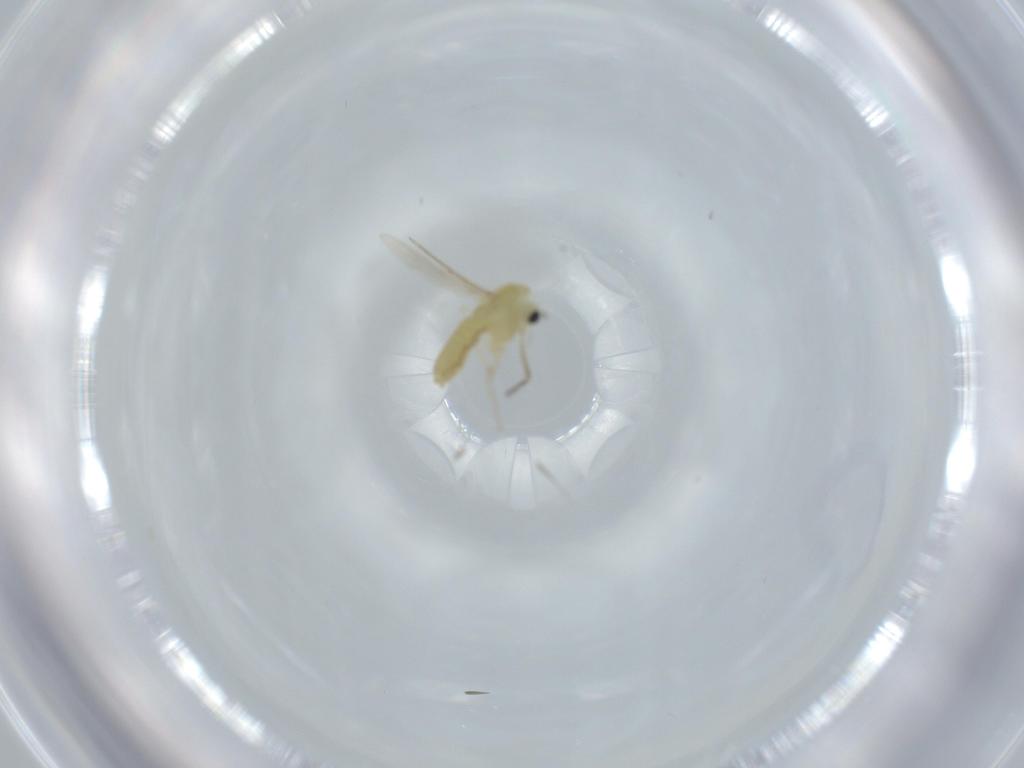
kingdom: Animalia
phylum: Arthropoda
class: Insecta
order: Diptera
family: Chironomidae
